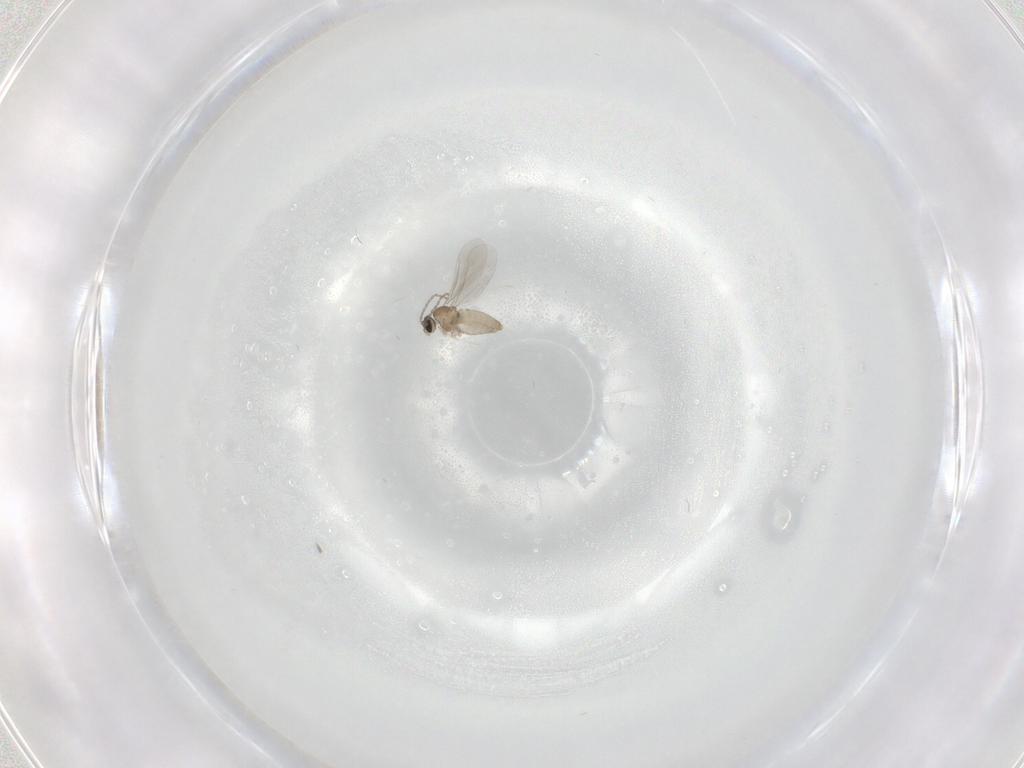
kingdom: Animalia
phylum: Arthropoda
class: Insecta
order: Diptera
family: Cecidomyiidae
